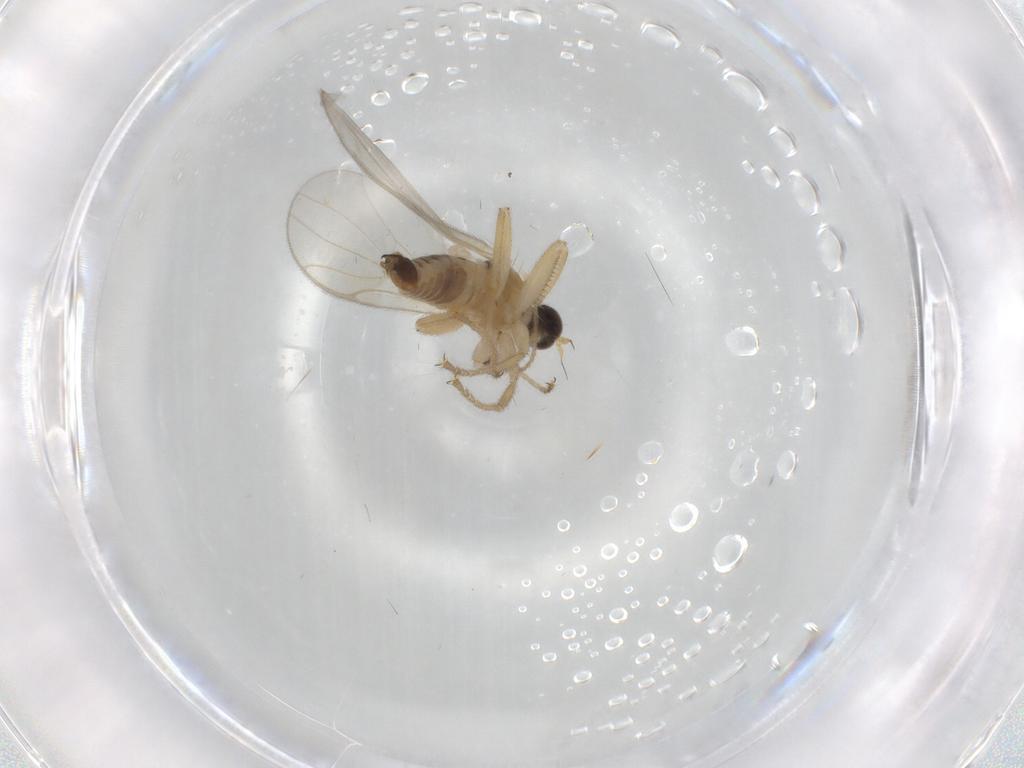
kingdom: Animalia
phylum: Arthropoda
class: Insecta
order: Diptera
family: Hybotidae
